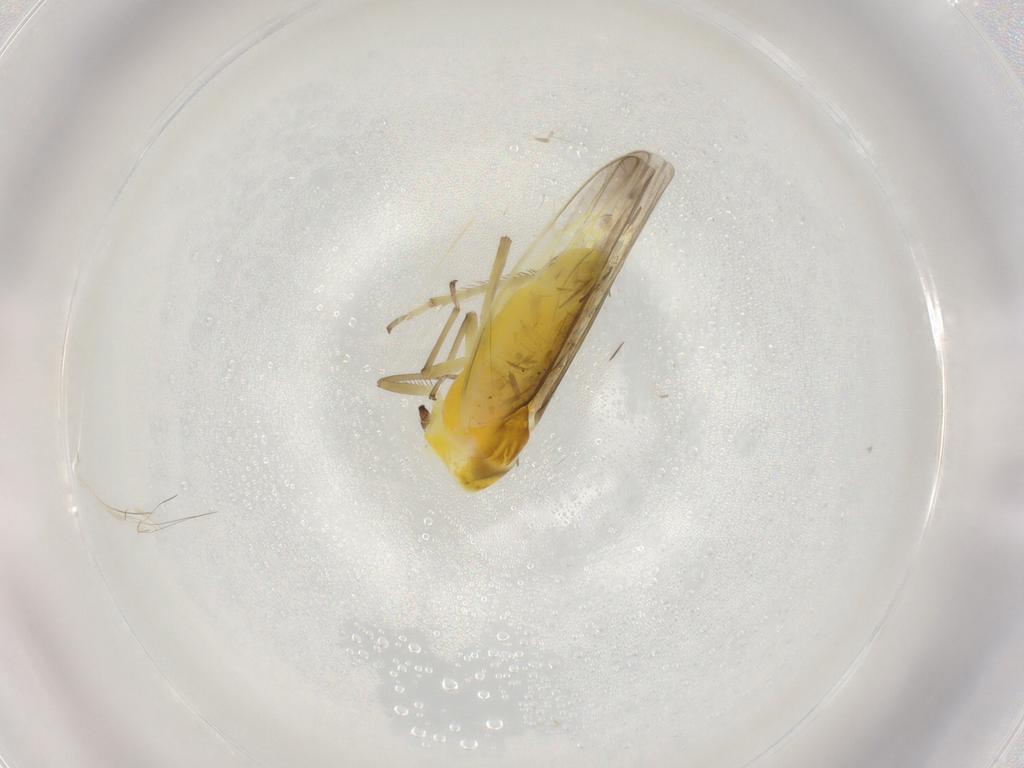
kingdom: Animalia
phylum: Arthropoda
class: Insecta
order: Hemiptera
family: Cicadellidae
